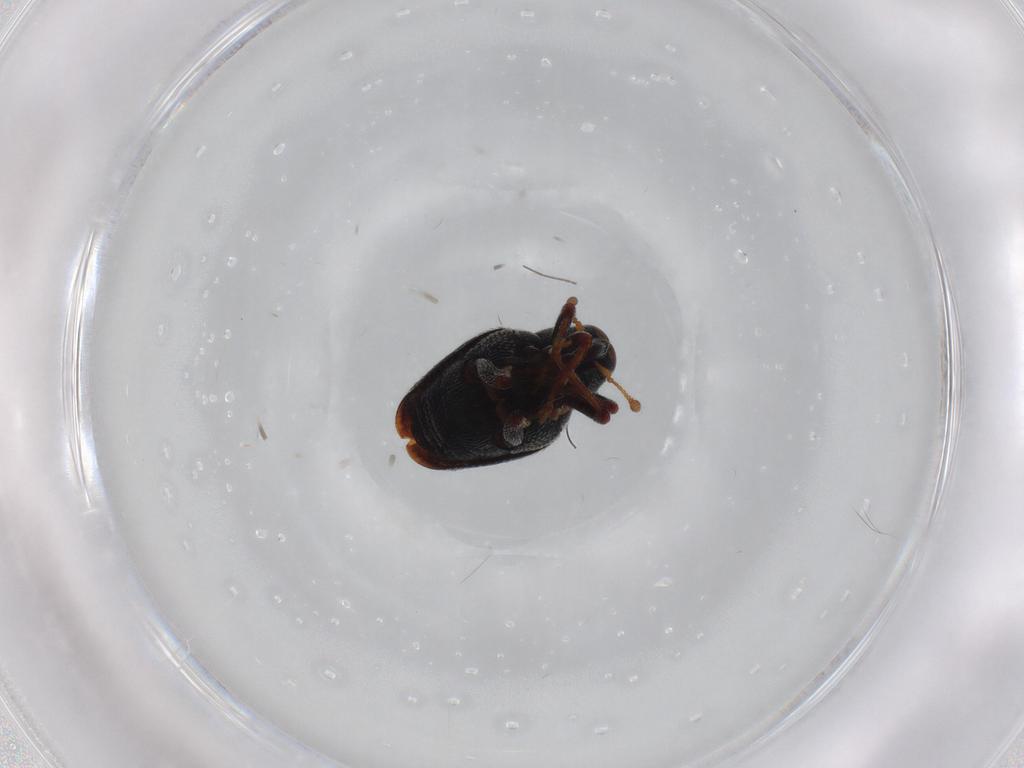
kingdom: Animalia
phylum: Arthropoda
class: Insecta
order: Coleoptera
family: Curculionidae
